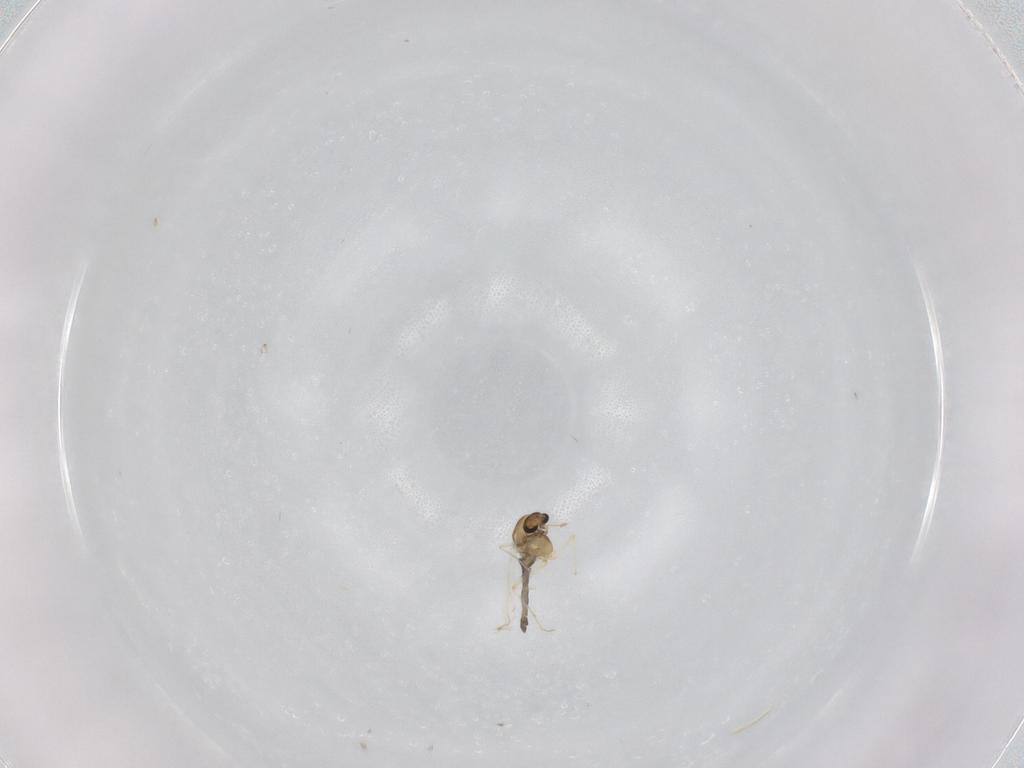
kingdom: Animalia
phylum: Arthropoda
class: Insecta
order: Diptera
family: Chironomidae
